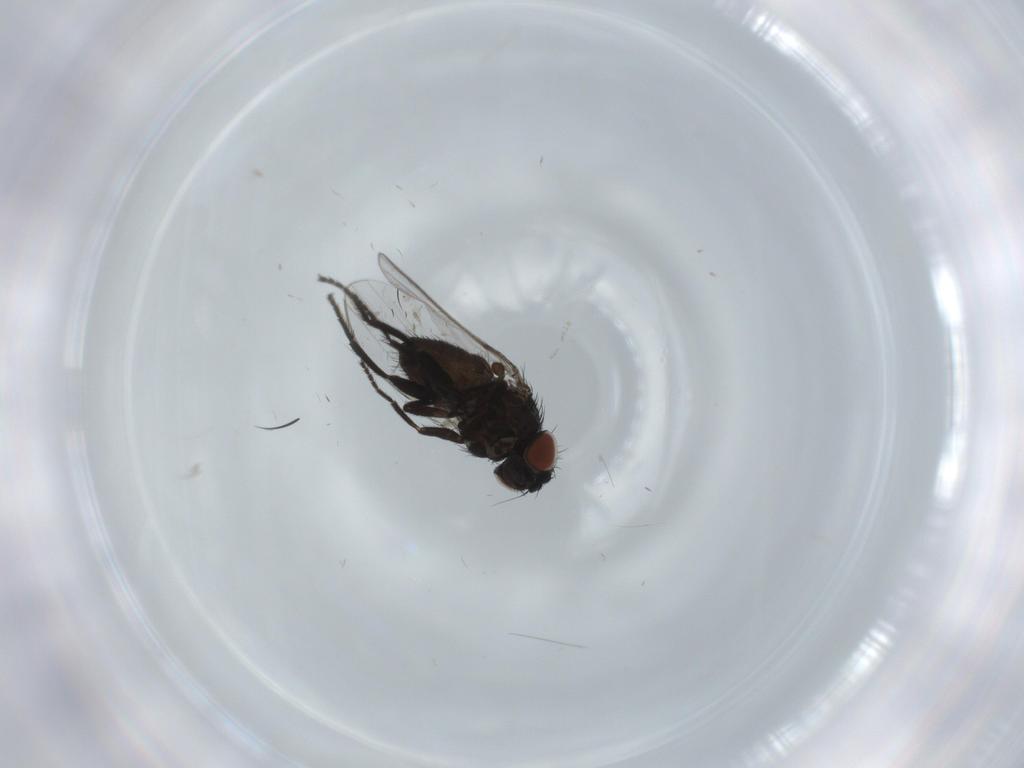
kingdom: Animalia
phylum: Arthropoda
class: Insecta
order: Diptera
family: Milichiidae
